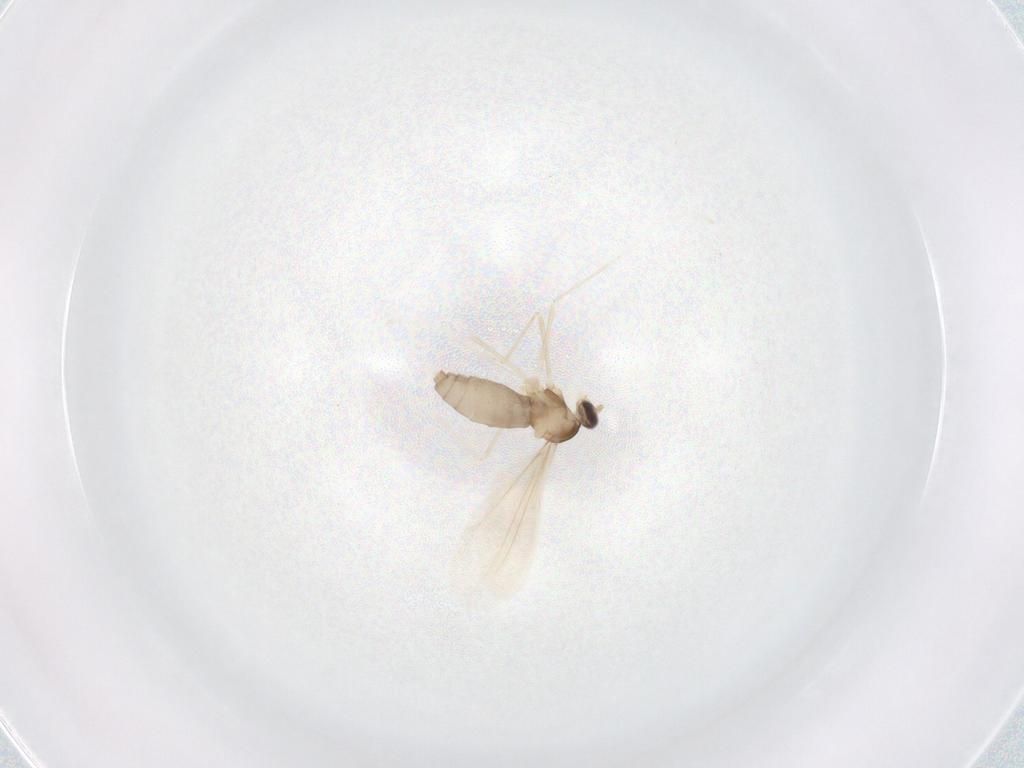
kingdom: Animalia
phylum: Arthropoda
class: Insecta
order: Diptera
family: Cecidomyiidae
